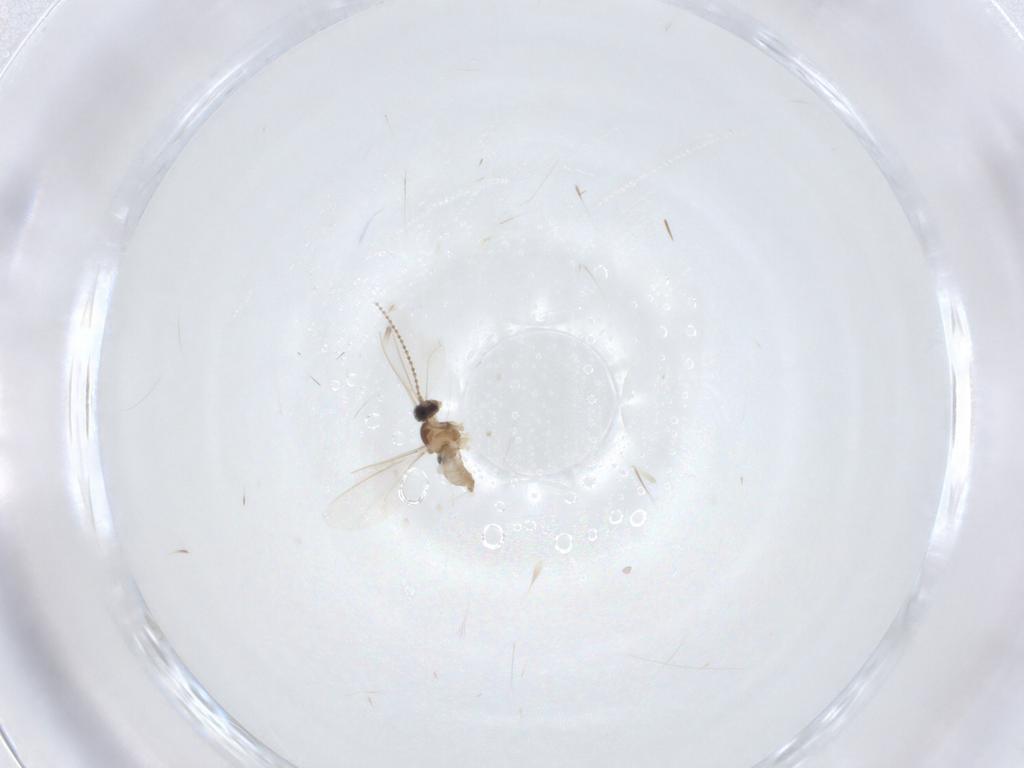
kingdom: Animalia
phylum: Arthropoda
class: Insecta
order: Diptera
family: Cecidomyiidae
